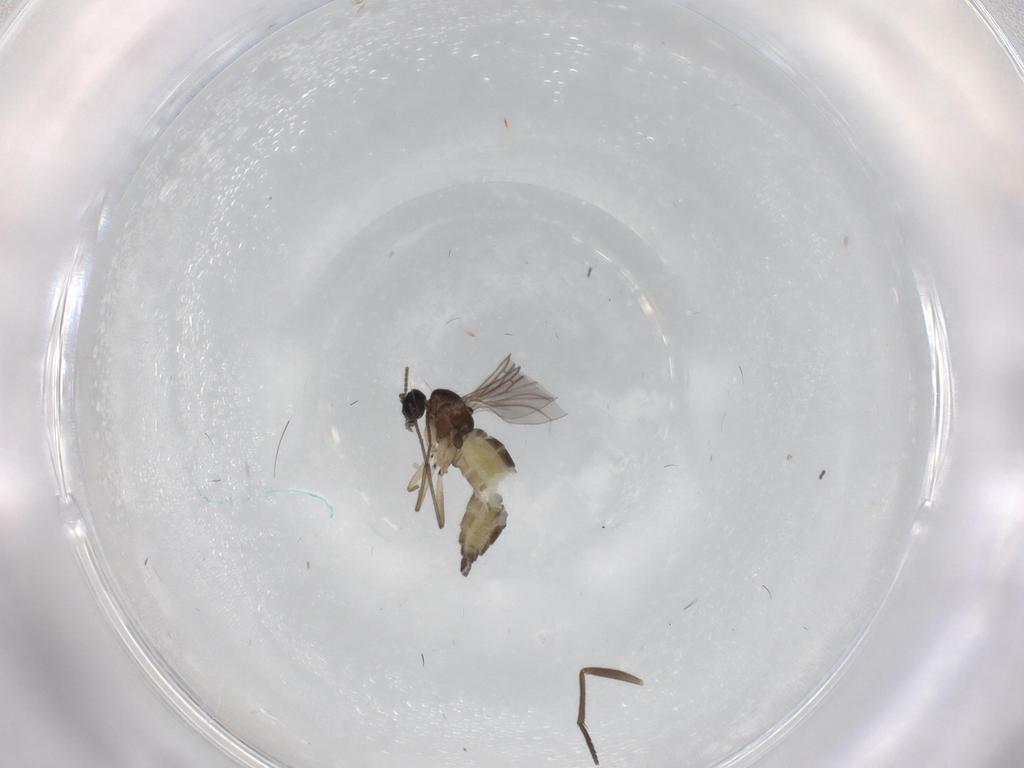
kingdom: Animalia
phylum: Arthropoda
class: Insecta
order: Diptera
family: Sciaridae
